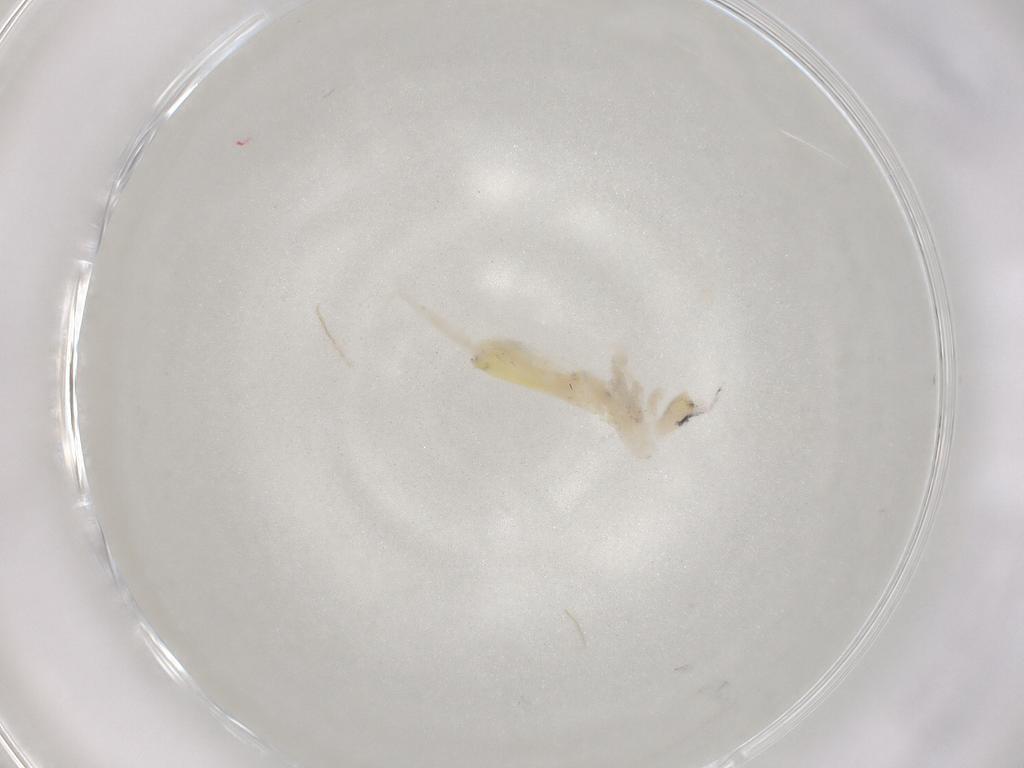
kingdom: Animalia
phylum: Arthropoda
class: Collembola
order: Entomobryomorpha
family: Entomobryidae
